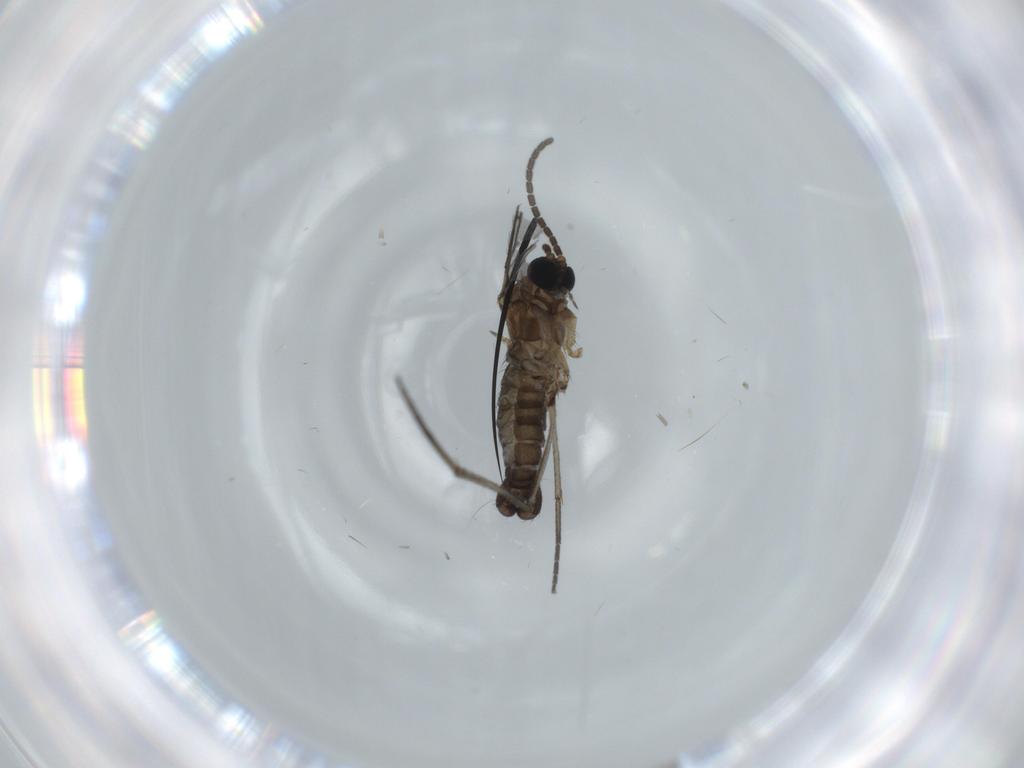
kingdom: Animalia
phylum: Arthropoda
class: Insecta
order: Diptera
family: Sciaridae
